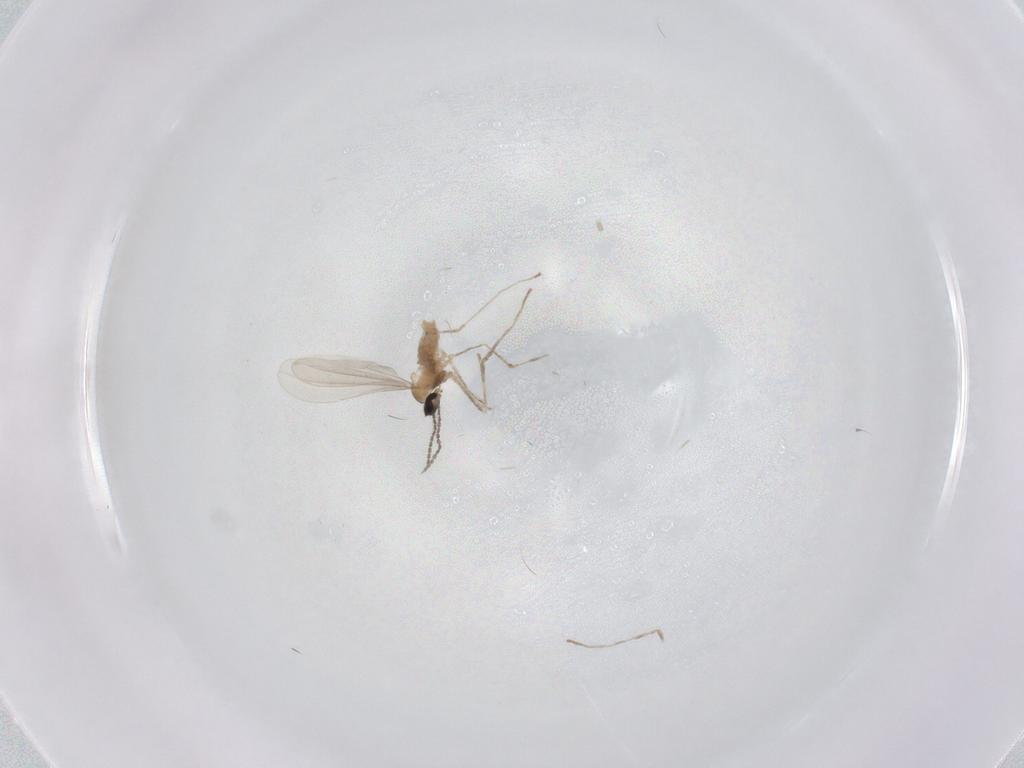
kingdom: Animalia
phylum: Arthropoda
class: Insecta
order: Diptera
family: Cecidomyiidae
